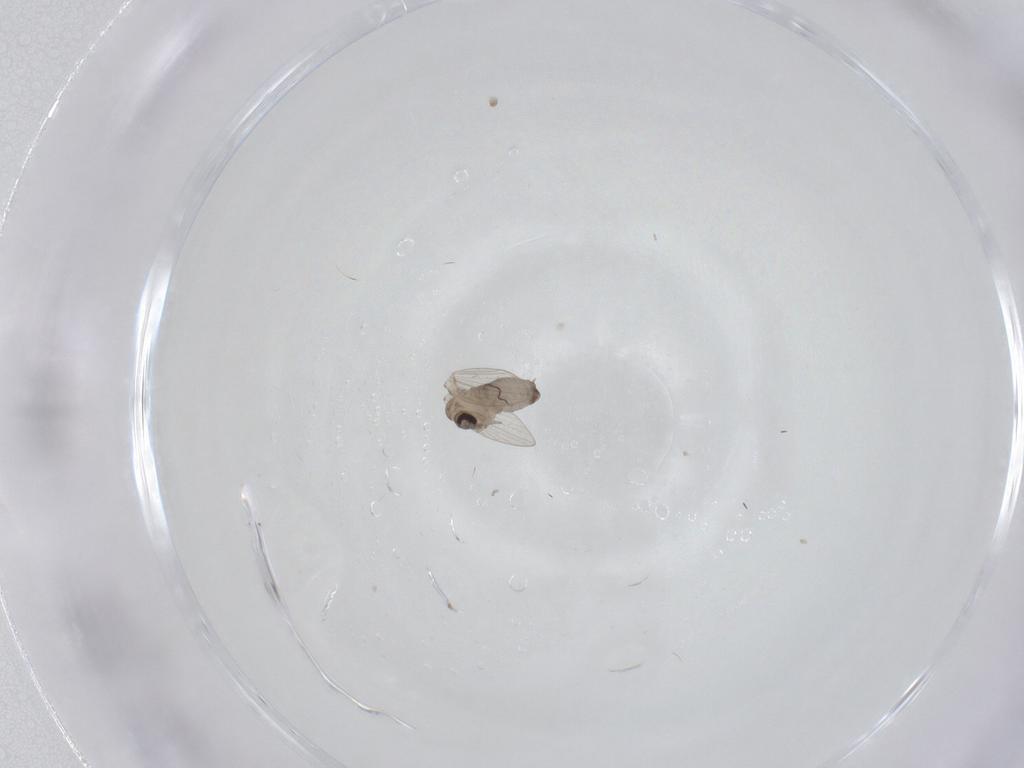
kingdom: Animalia
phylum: Arthropoda
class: Insecta
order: Diptera
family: Psychodidae
